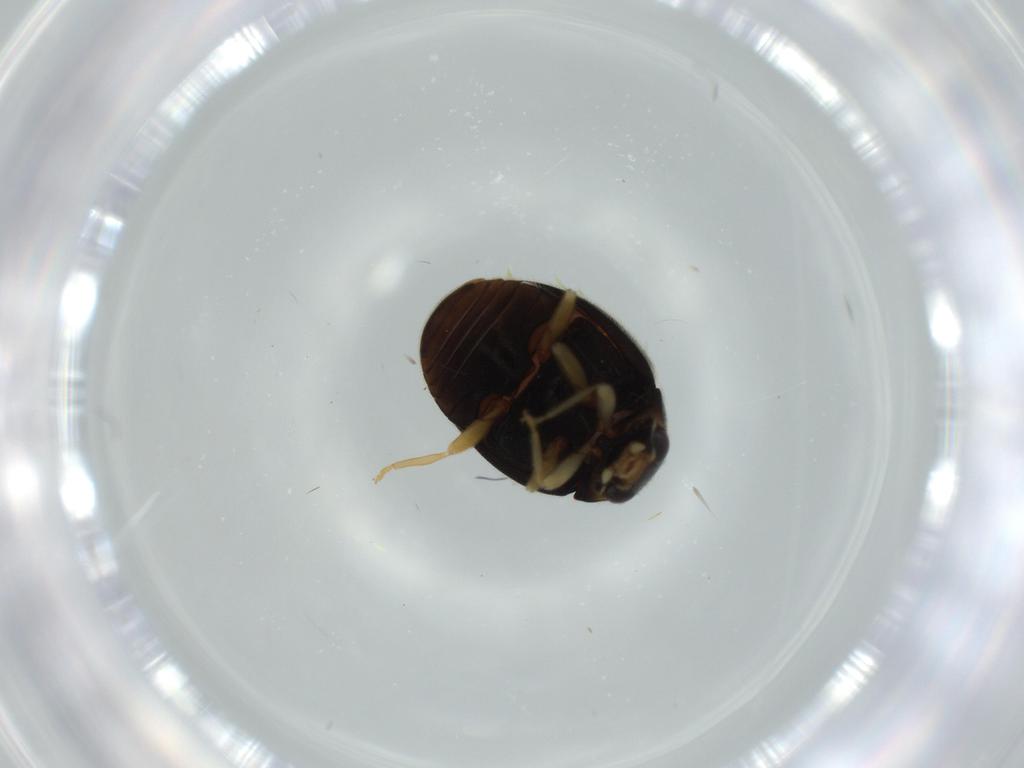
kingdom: Animalia
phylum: Arthropoda
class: Insecta
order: Coleoptera
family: Coccinellidae
